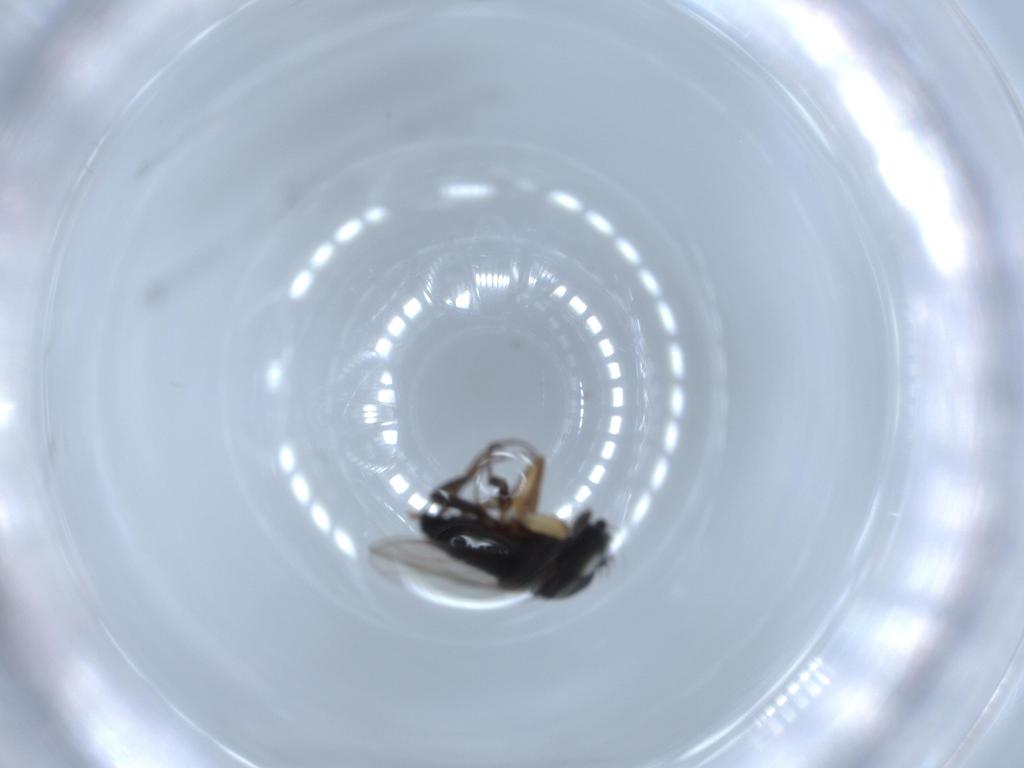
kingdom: Animalia
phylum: Arthropoda
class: Insecta
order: Diptera
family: Phoridae
